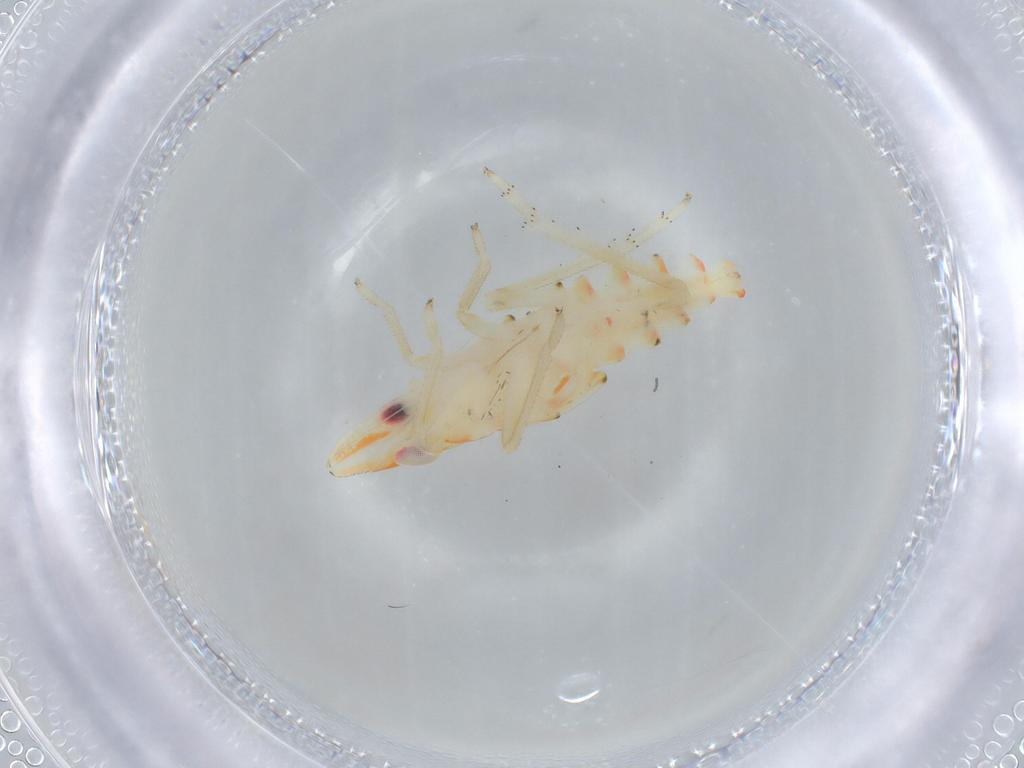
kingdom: Animalia
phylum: Arthropoda
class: Insecta
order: Hemiptera
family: Tropiduchidae
